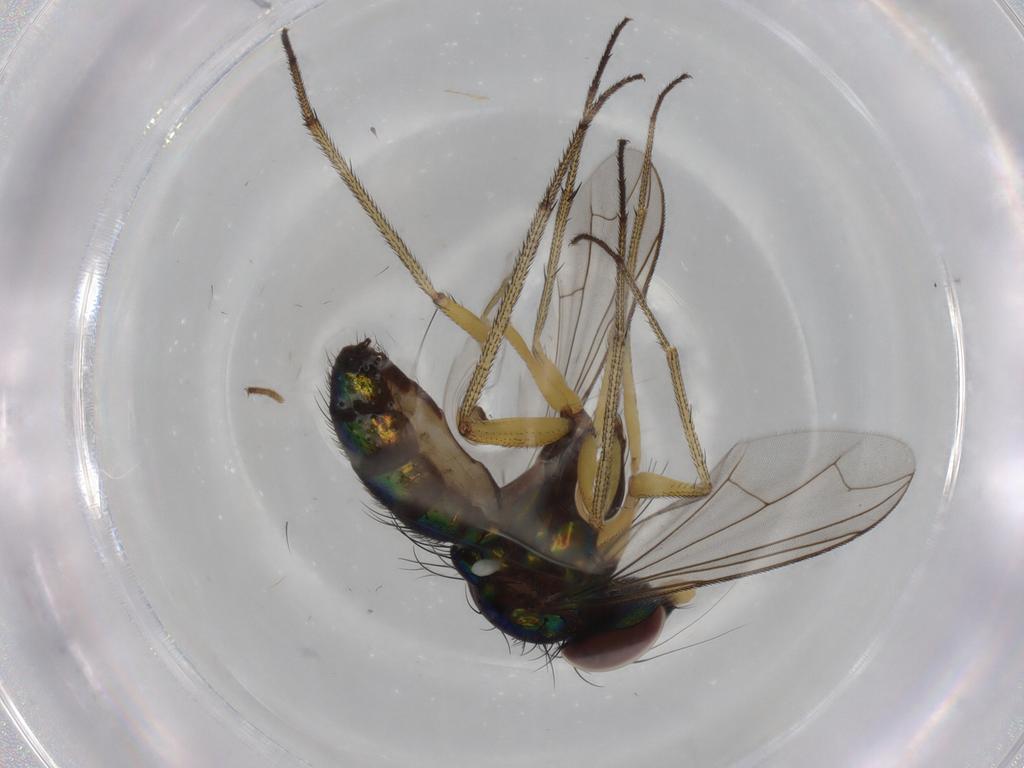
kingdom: Animalia
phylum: Arthropoda
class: Insecta
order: Diptera
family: Dolichopodidae
